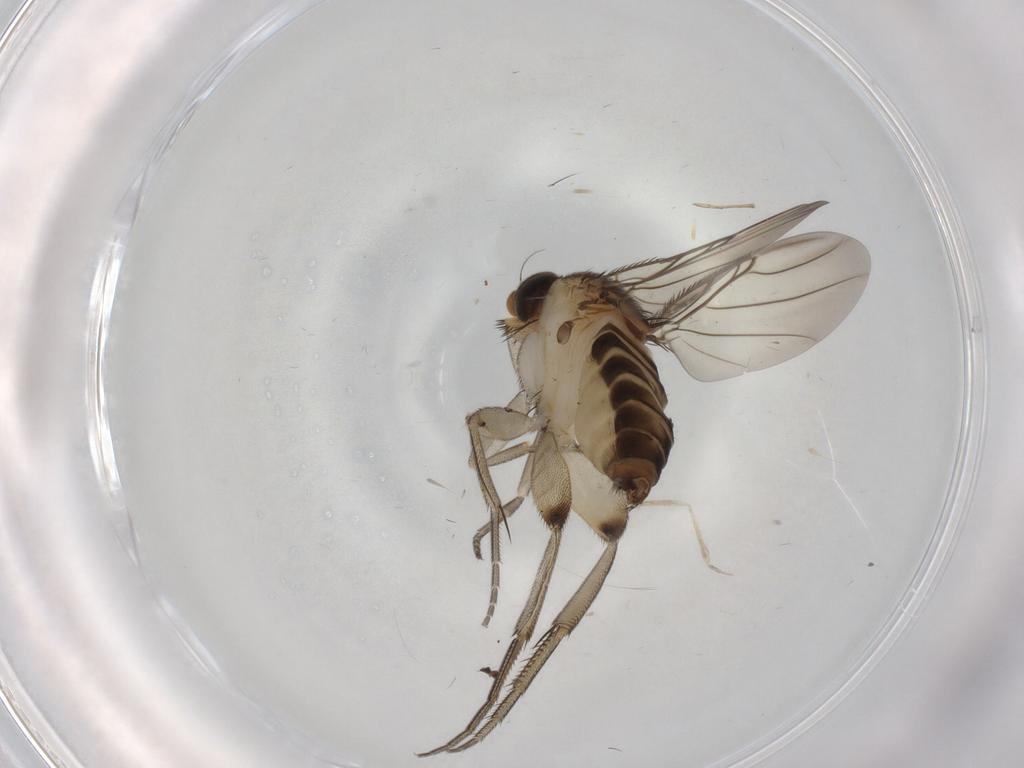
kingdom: Animalia
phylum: Arthropoda
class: Insecta
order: Diptera
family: Phoridae
